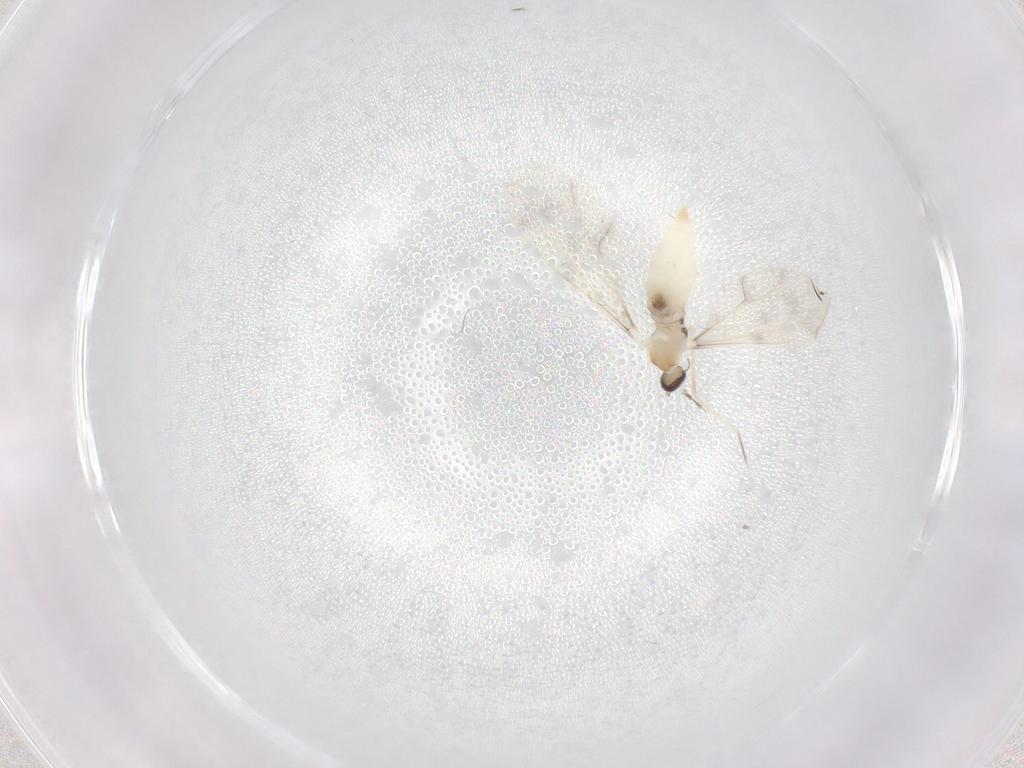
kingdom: Animalia
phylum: Arthropoda
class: Insecta
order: Diptera
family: Cecidomyiidae
